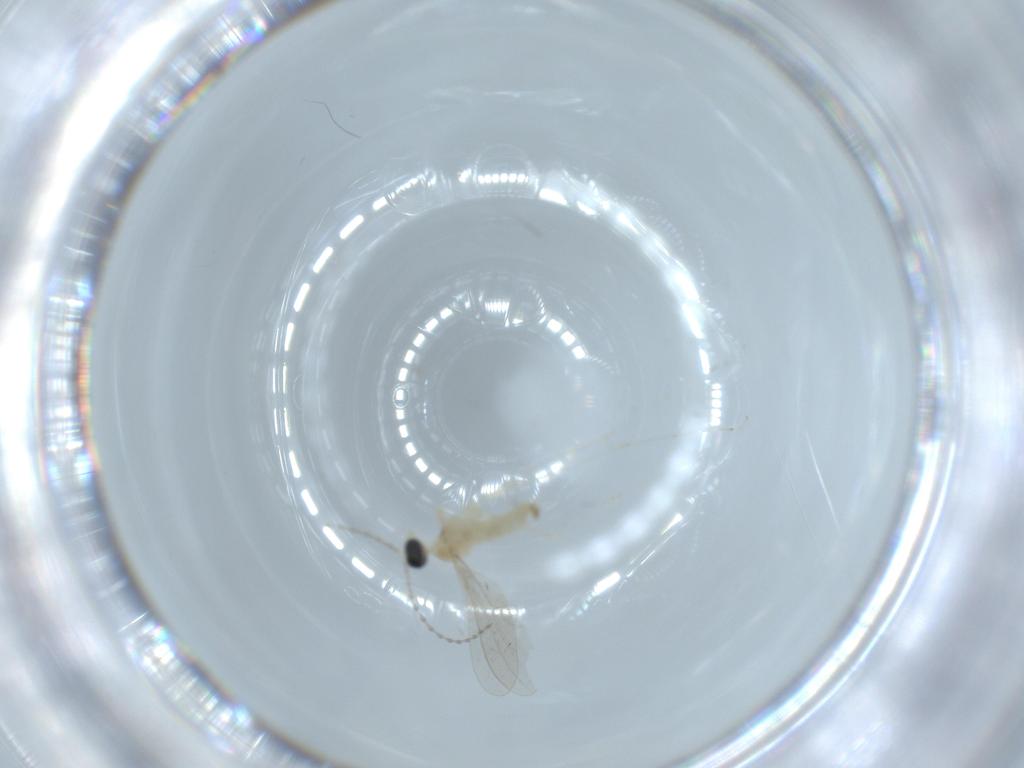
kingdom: Animalia
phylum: Arthropoda
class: Insecta
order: Diptera
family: Cecidomyiidae
